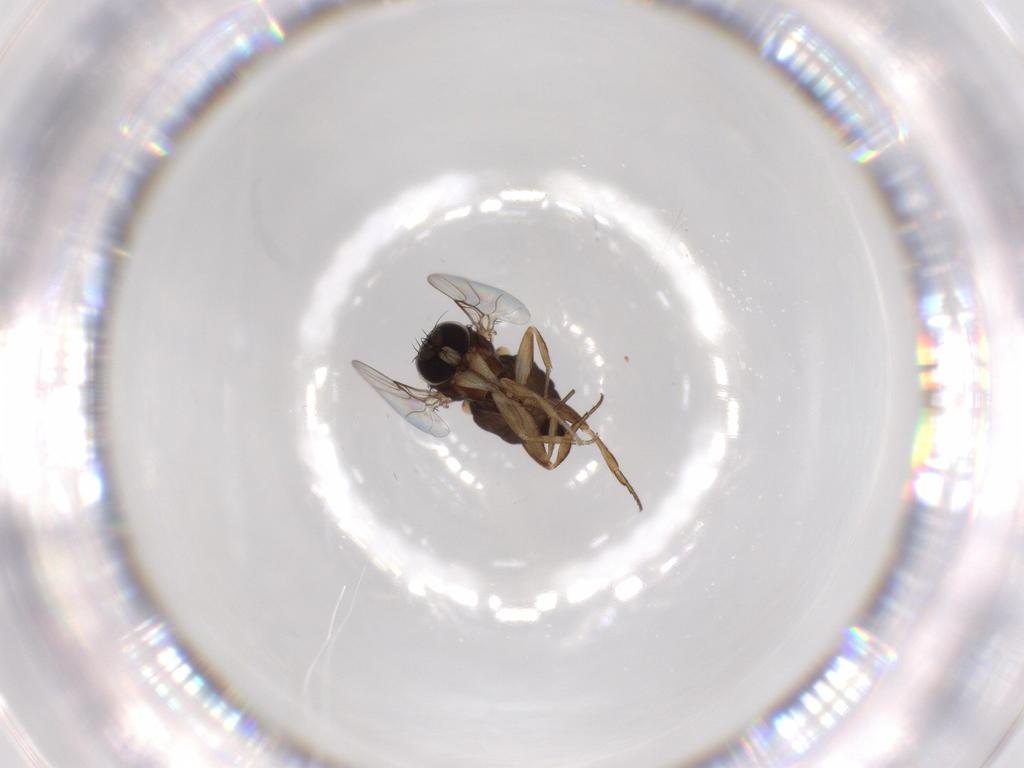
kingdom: Animalia
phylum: Arthropoda
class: Insecta
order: Diptera
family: Phoridae
